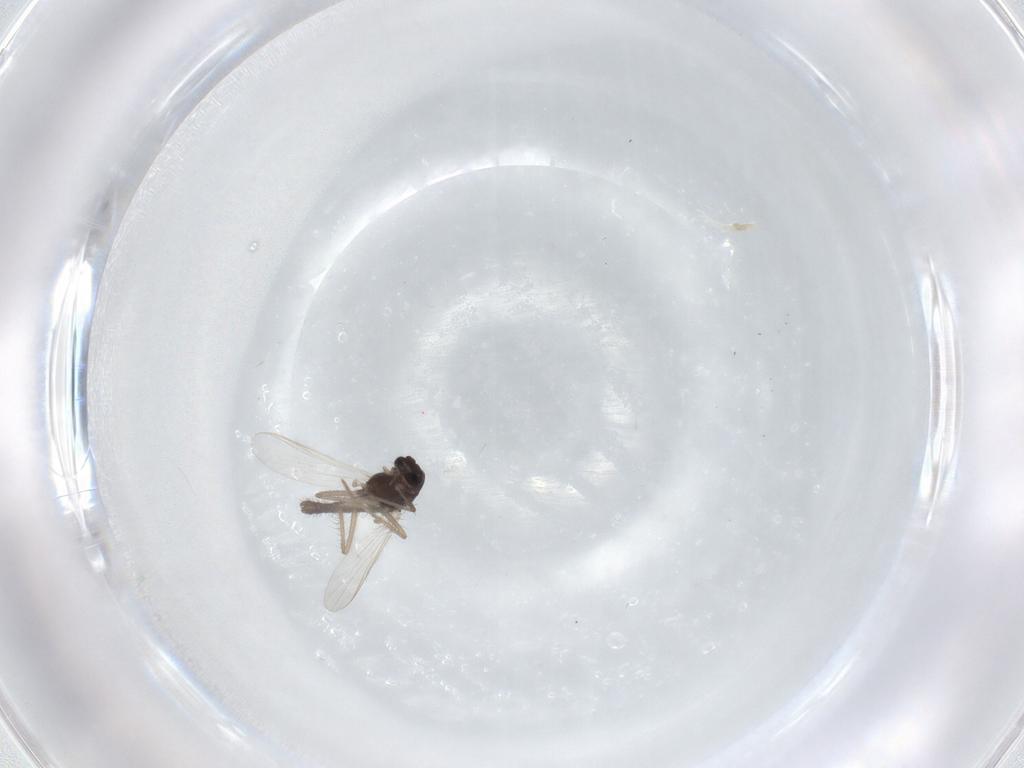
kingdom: Animalia
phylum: Arthropoda
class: Insecta
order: Diptera
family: Chironomidae
